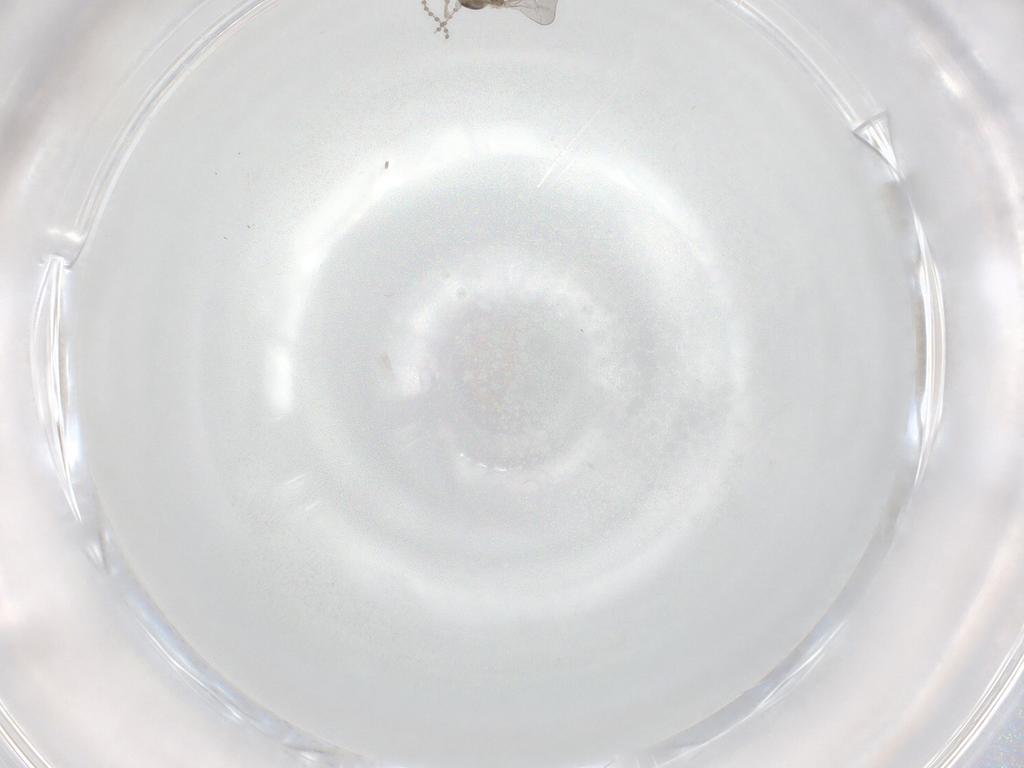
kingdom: Animalia
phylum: Arthropoda
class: Insecta
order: Diptera
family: Cecidomyiidae
